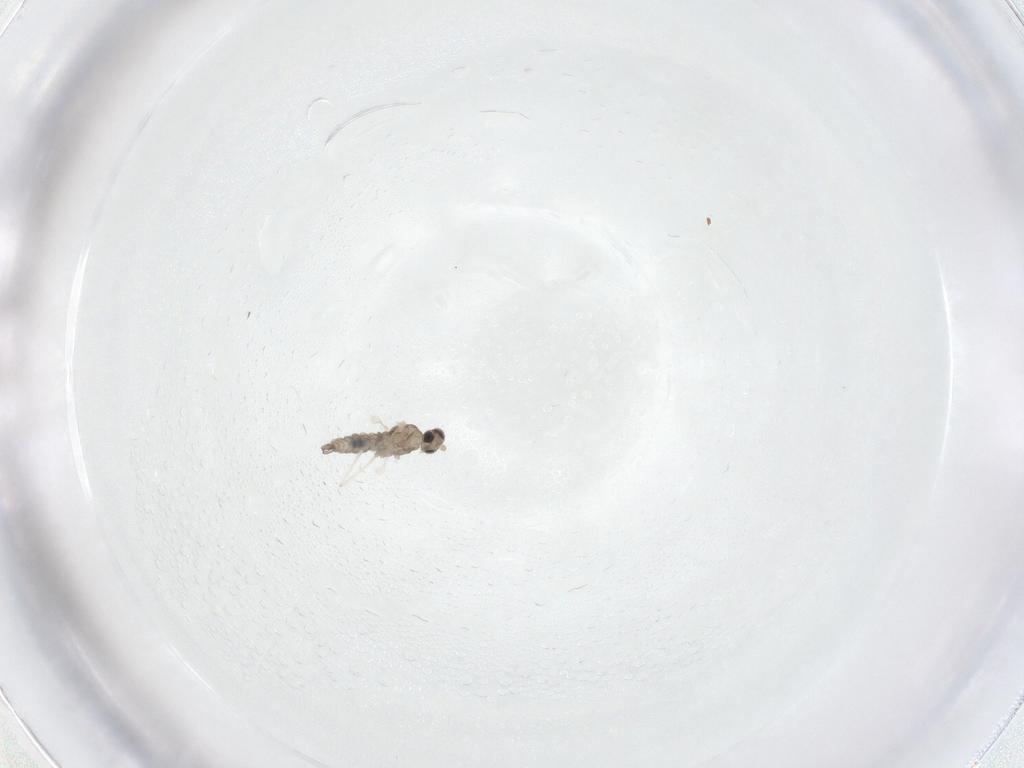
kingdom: Animalia
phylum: Arthropoda
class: Insecta
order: Diptera
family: Cecidomyiidae
